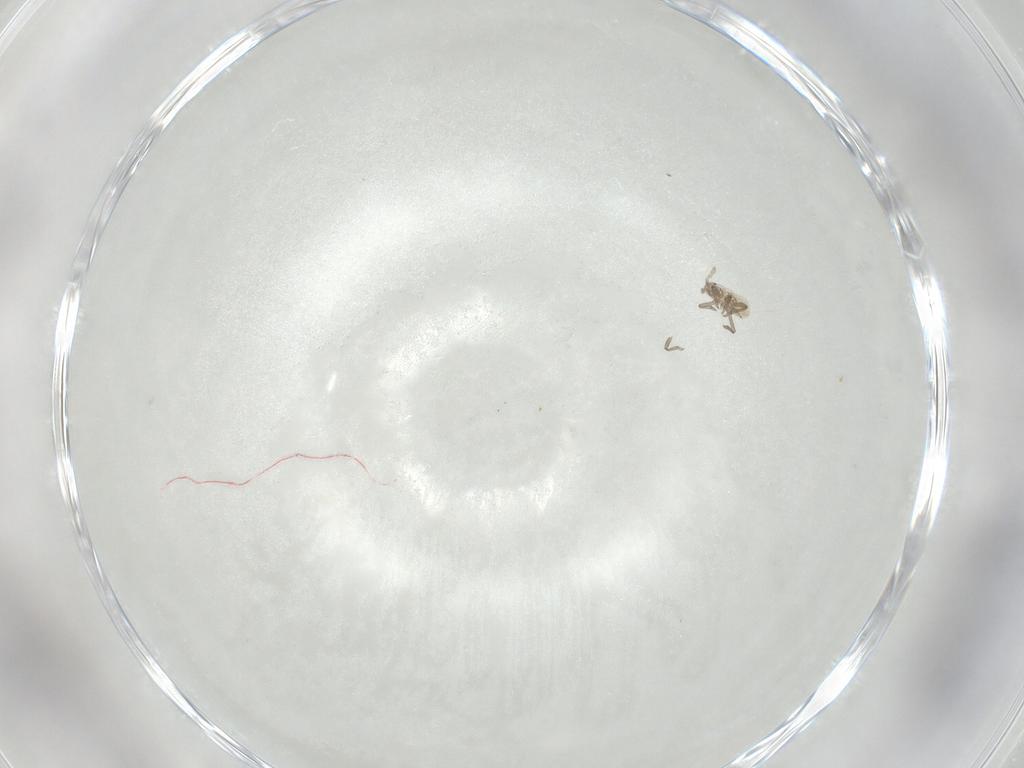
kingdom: Animalia
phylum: Arthropoda
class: Insecta
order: Hemiptera
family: Aphididae
